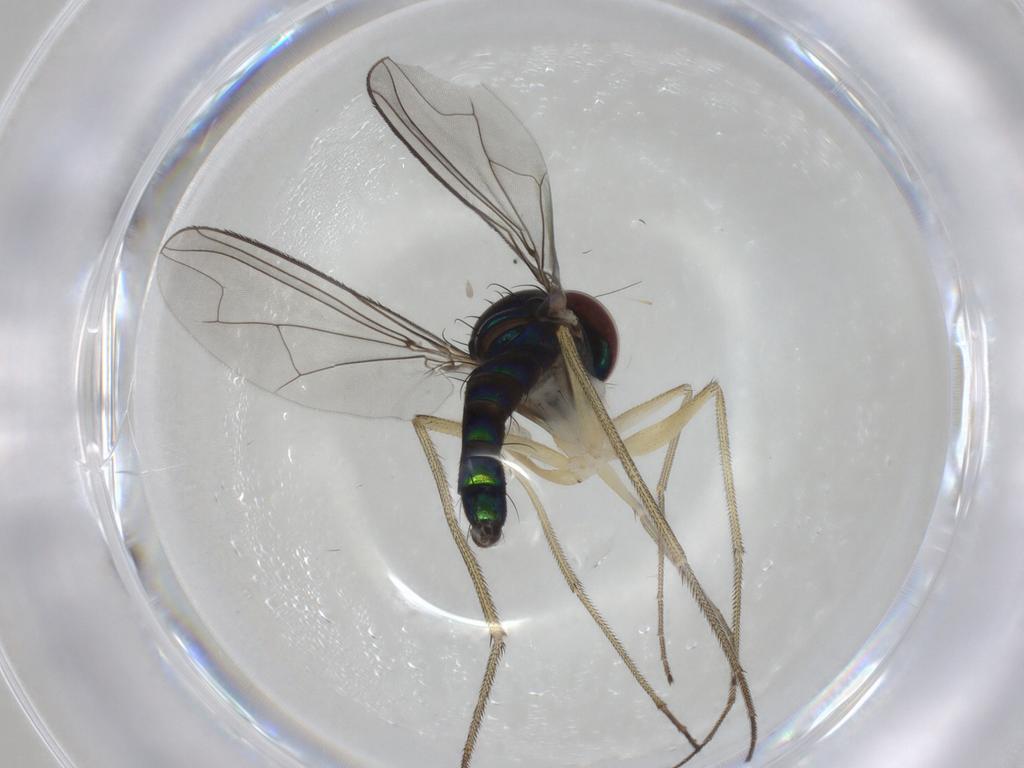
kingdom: Animalia
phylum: Arthropoda
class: Insecta
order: Diptera
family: Dolichopodidae
